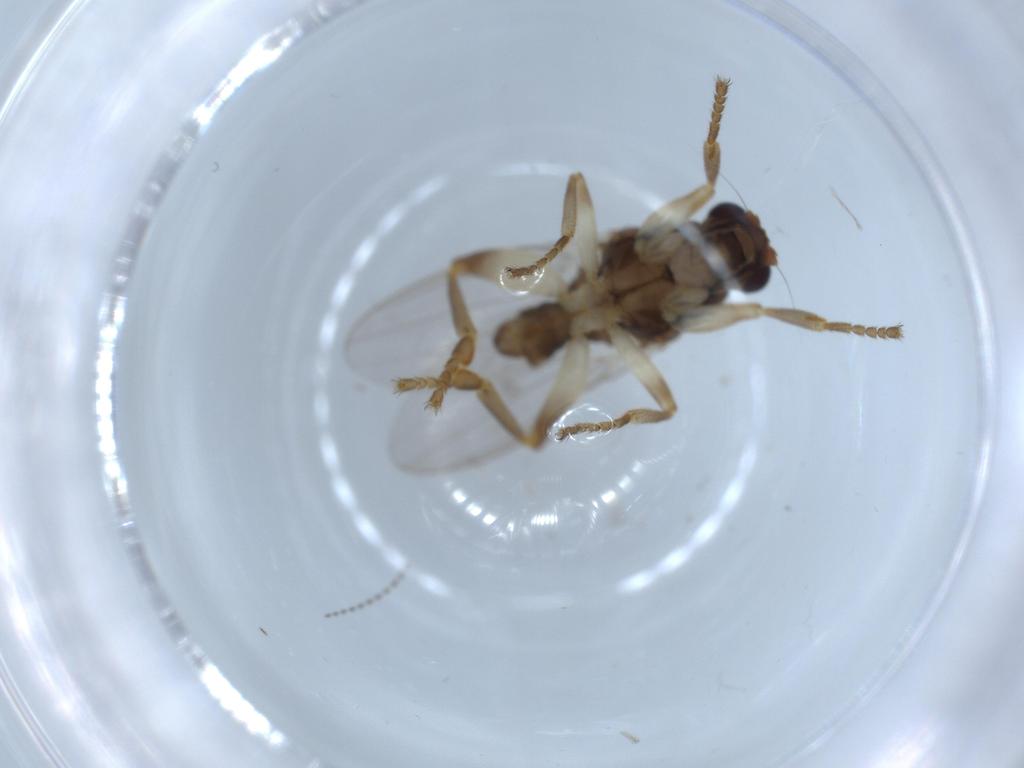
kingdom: Animalia
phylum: Arthropoda
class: Insecta
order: Diptera
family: Sphaeroceridae
